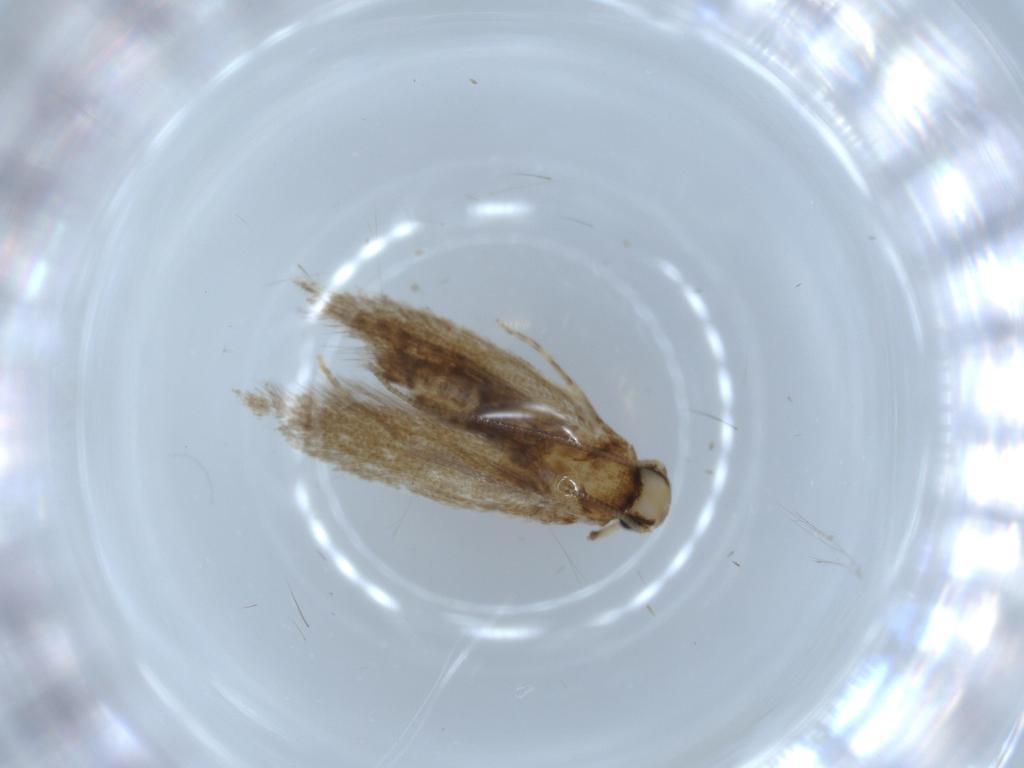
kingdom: Animalia
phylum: Arthropoda
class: Insecta
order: Lepidoptera
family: Tineidae
